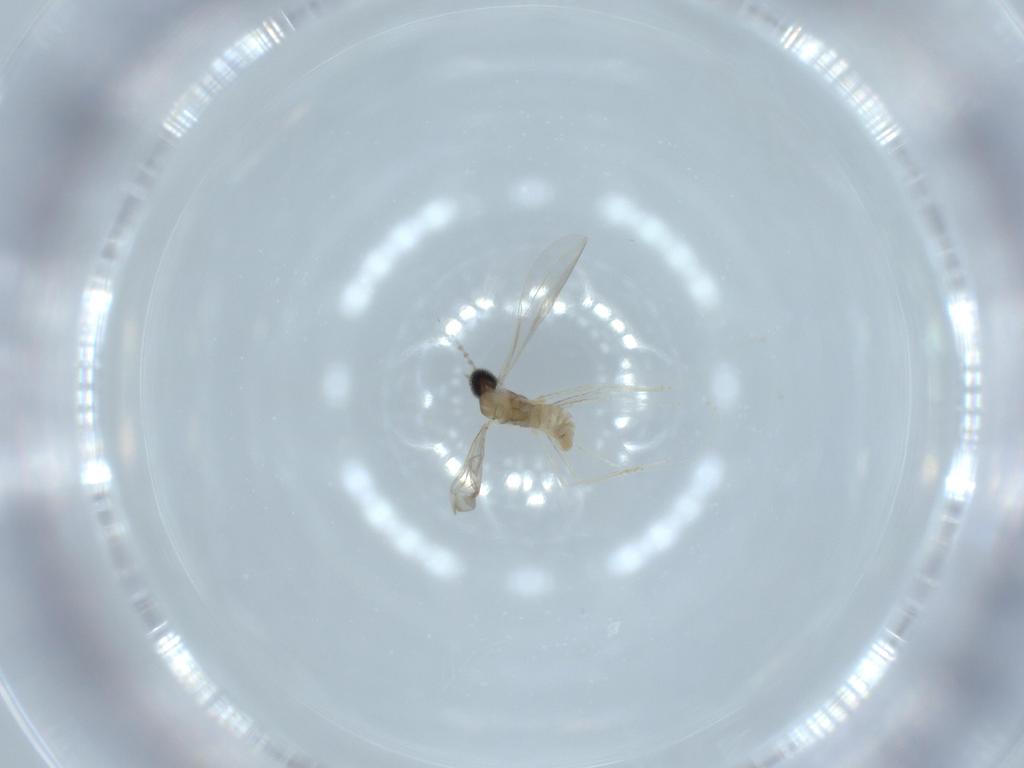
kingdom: Animalia
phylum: Arthropoda
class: Insecta
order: Diptera
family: Cecidomyiidae
